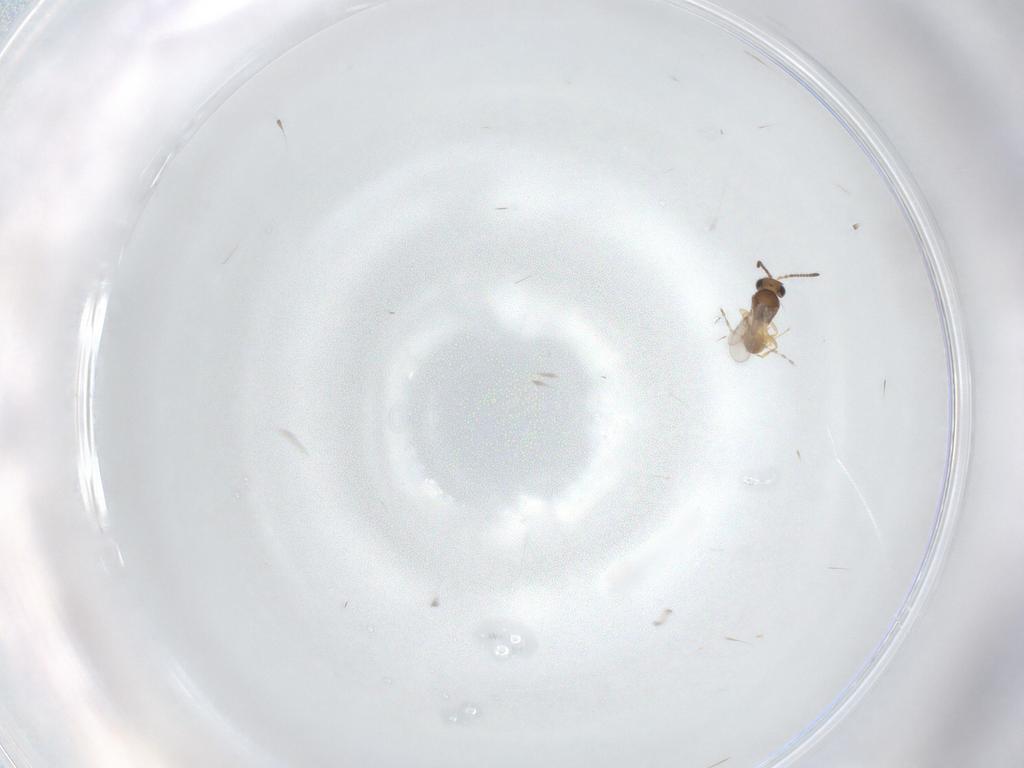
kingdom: Animalia
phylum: Arthropoda
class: Insecta
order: Hymenoptera
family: Scelionidae
